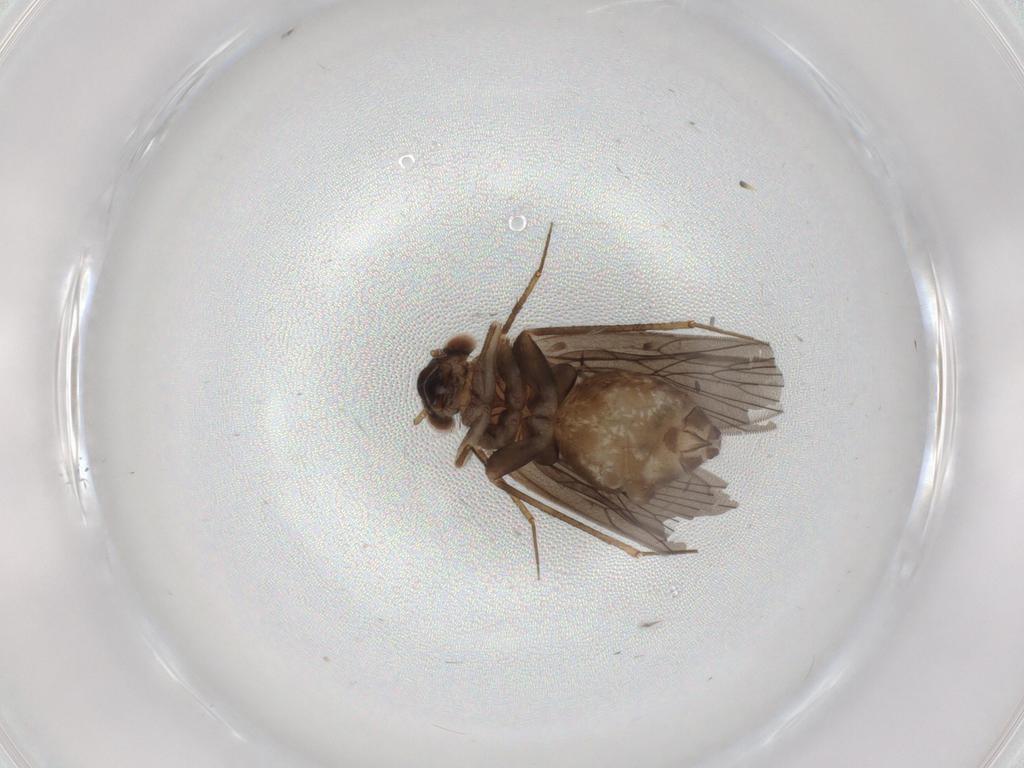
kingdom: Animalia
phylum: Arthropoda
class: Insecta
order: Psocodea
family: Lepidopsocidae
